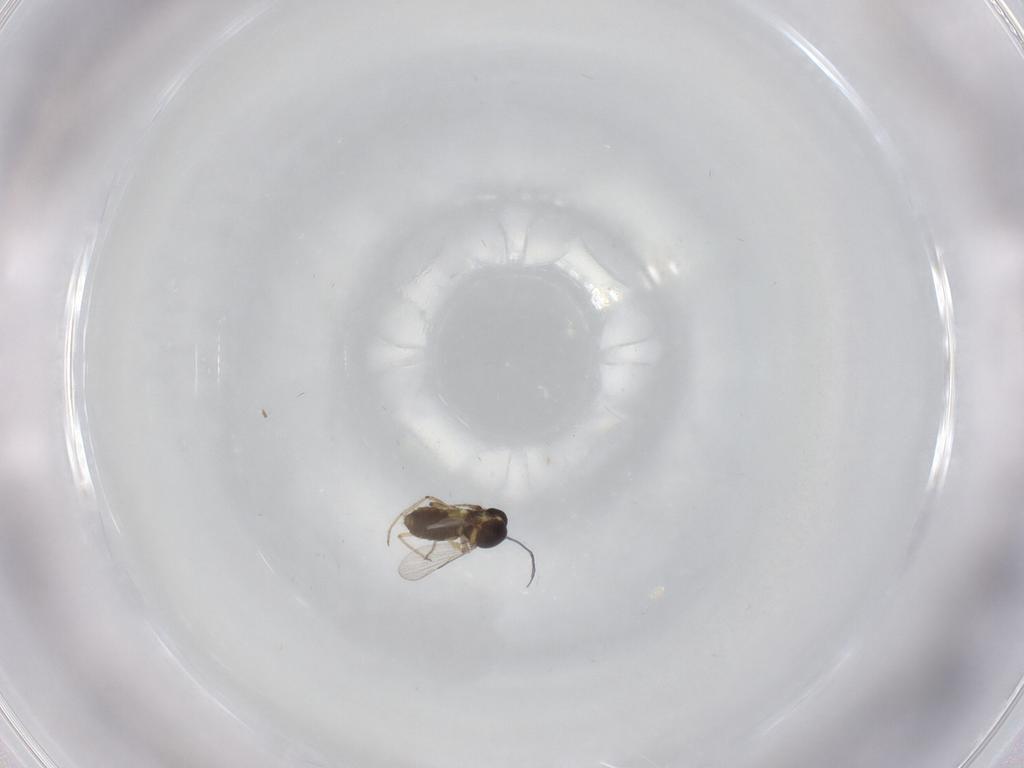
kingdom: Animalia
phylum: Arthropoda
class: Insecta
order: Diptera
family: Ceratopogonidae
